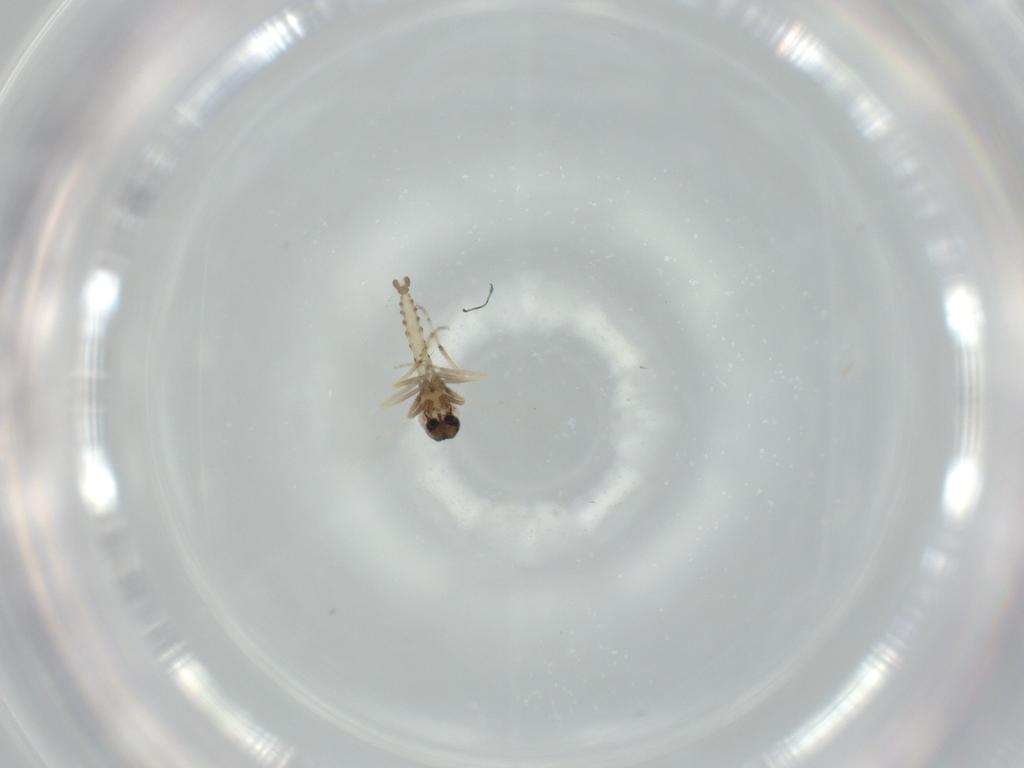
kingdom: Animalia
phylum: Arthropoda
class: Insecta
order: Diptera
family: Ceratopogonidae
